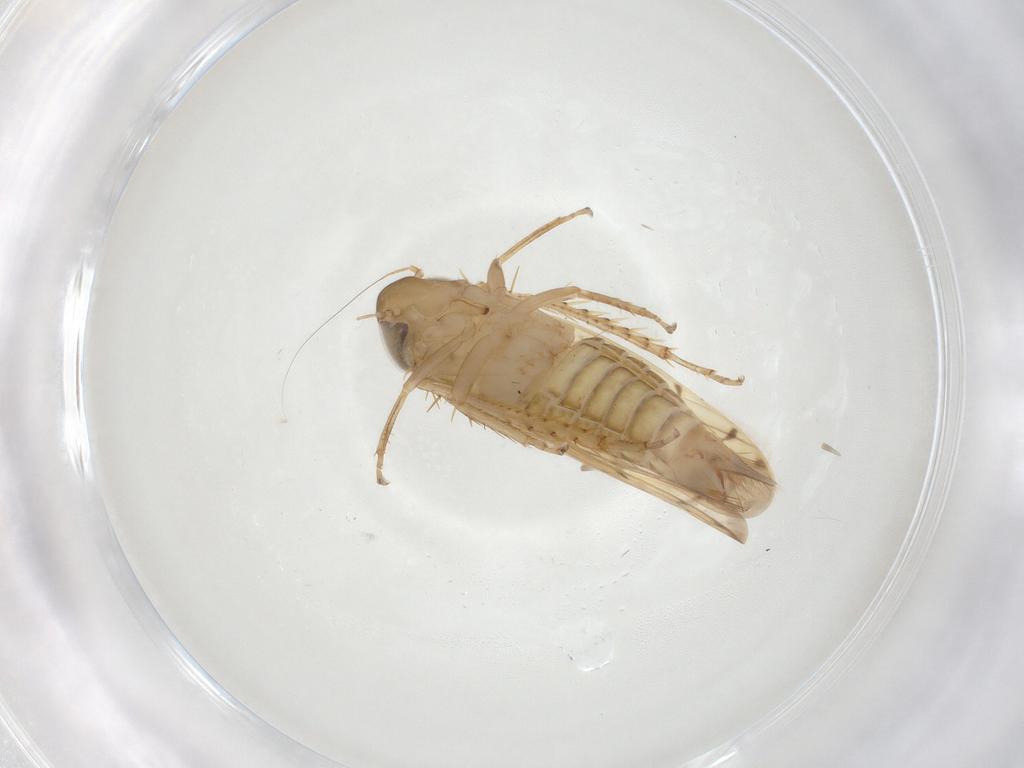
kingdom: Animalia
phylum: Arthropoda
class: Insecta
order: Hemiptera
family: Cicadellidae
